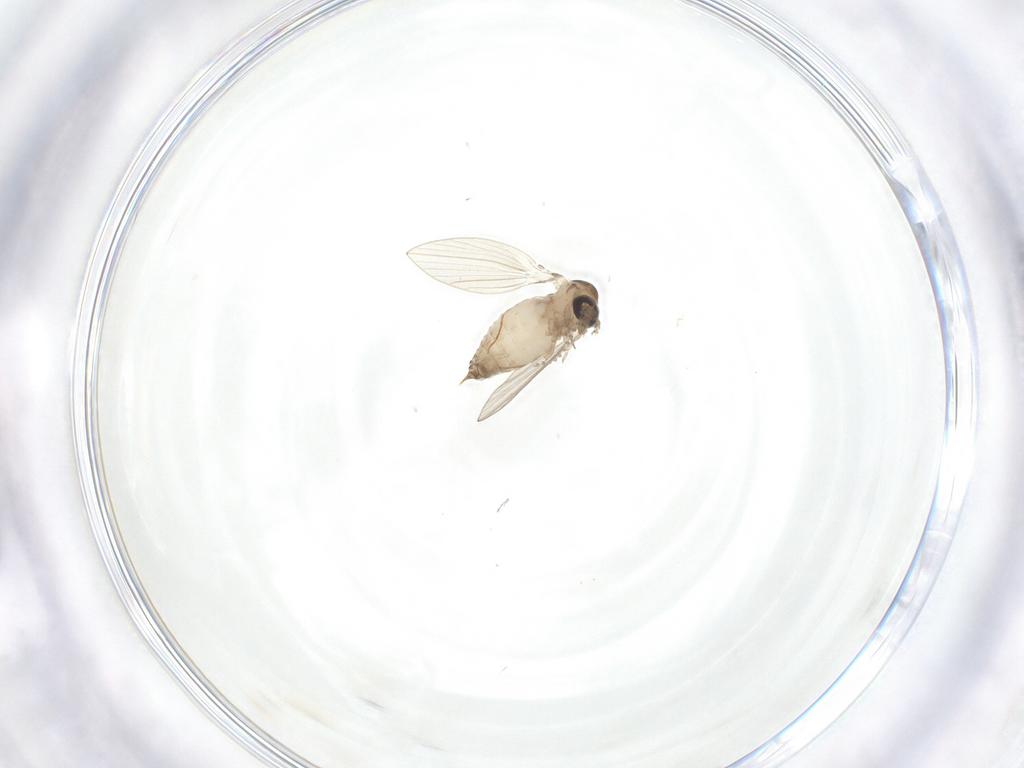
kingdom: Animalia
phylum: Arthropoda
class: Insecta
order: Diptera
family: Psychodidae
